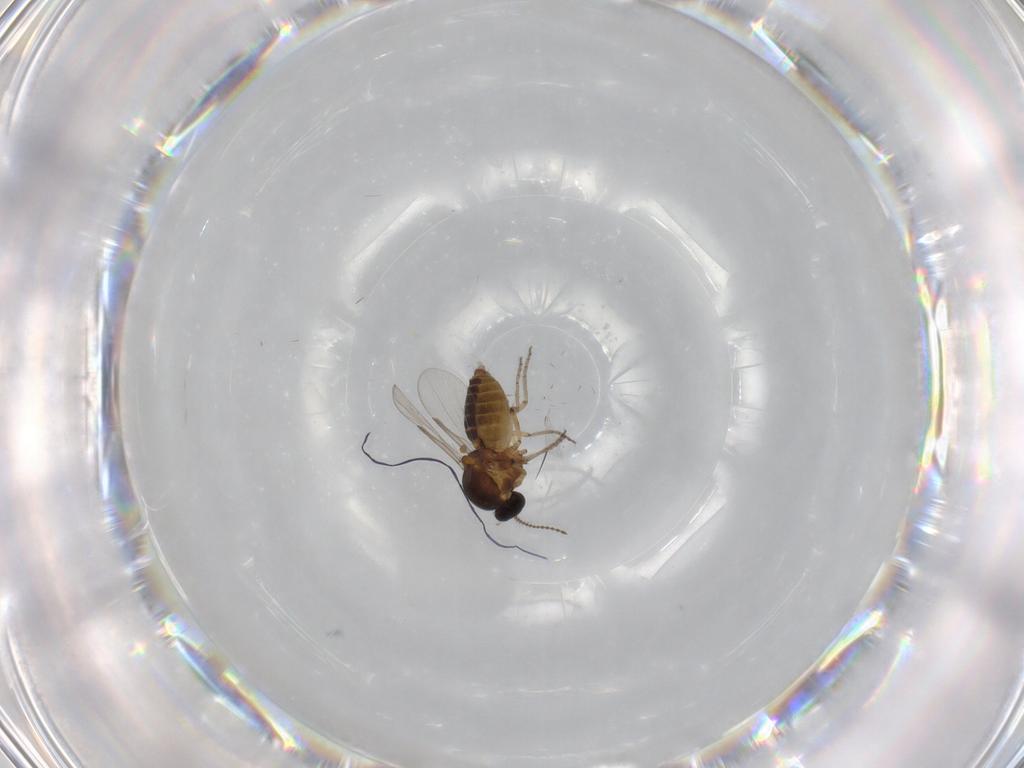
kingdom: Animalia
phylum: Arthropoda
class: Insecta
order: Diptera
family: Ceratopogonidae
